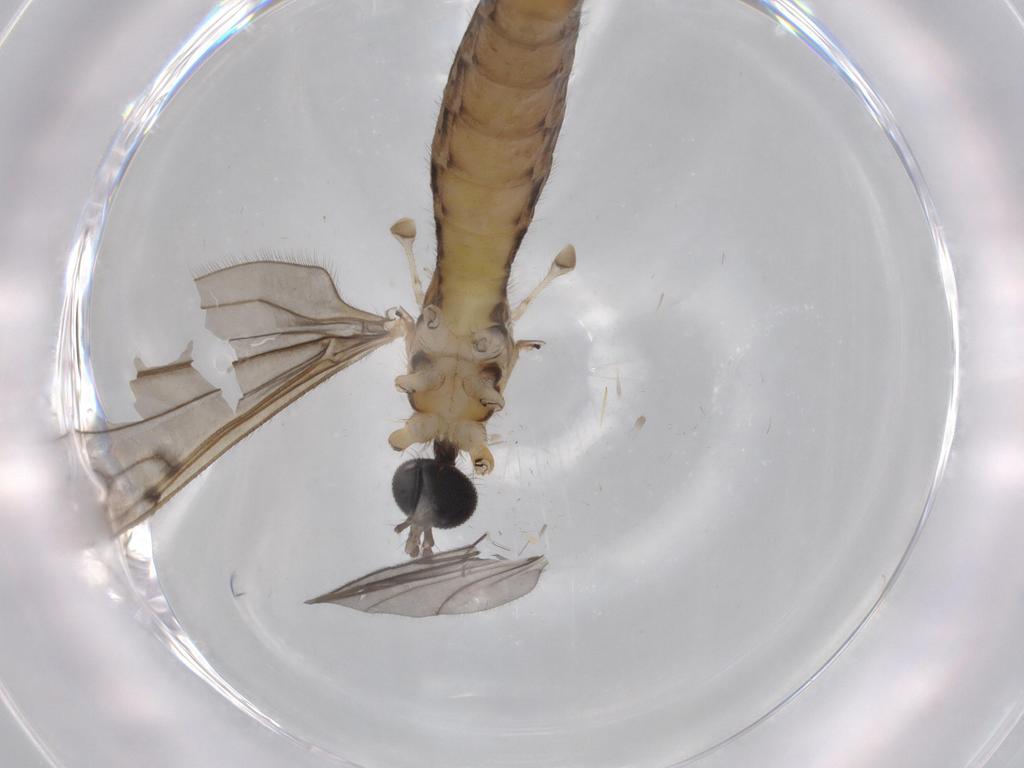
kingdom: Animalia
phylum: Arthropoda
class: Insecta
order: Diptera
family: Limoniidae
